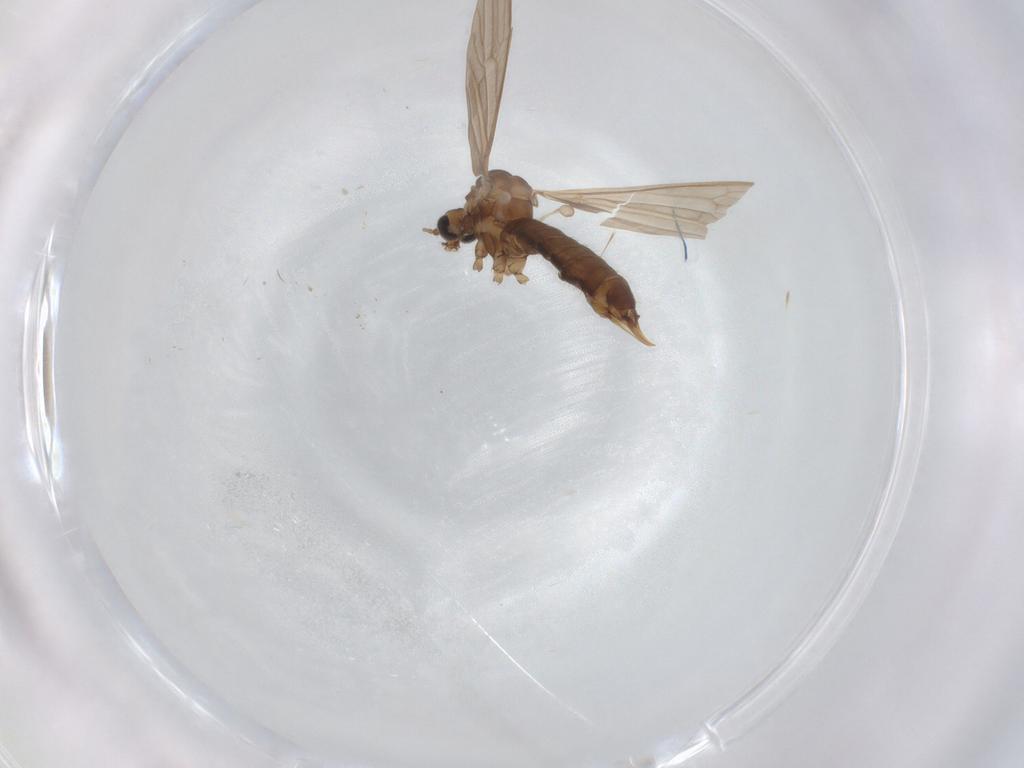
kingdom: Animalia
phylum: Arthropoda
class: Insecta
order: Diptera
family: Limoniidae
